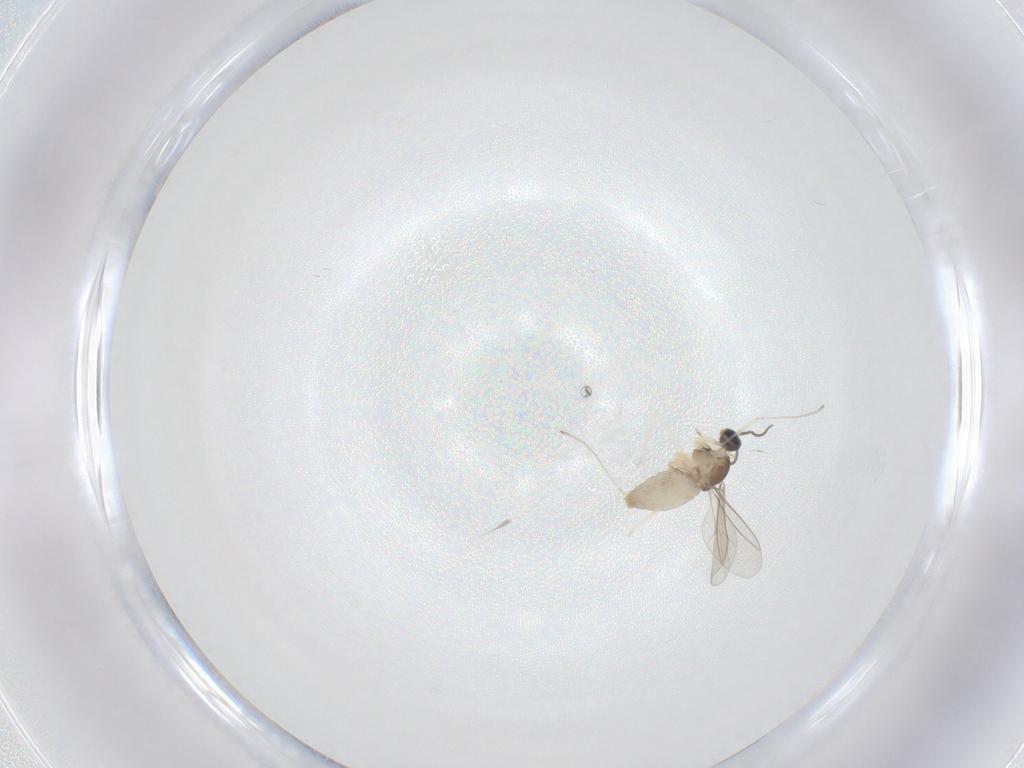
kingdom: Animalia
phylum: Arthropoda
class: Insecta
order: Diptera
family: Cecidomyiidae
